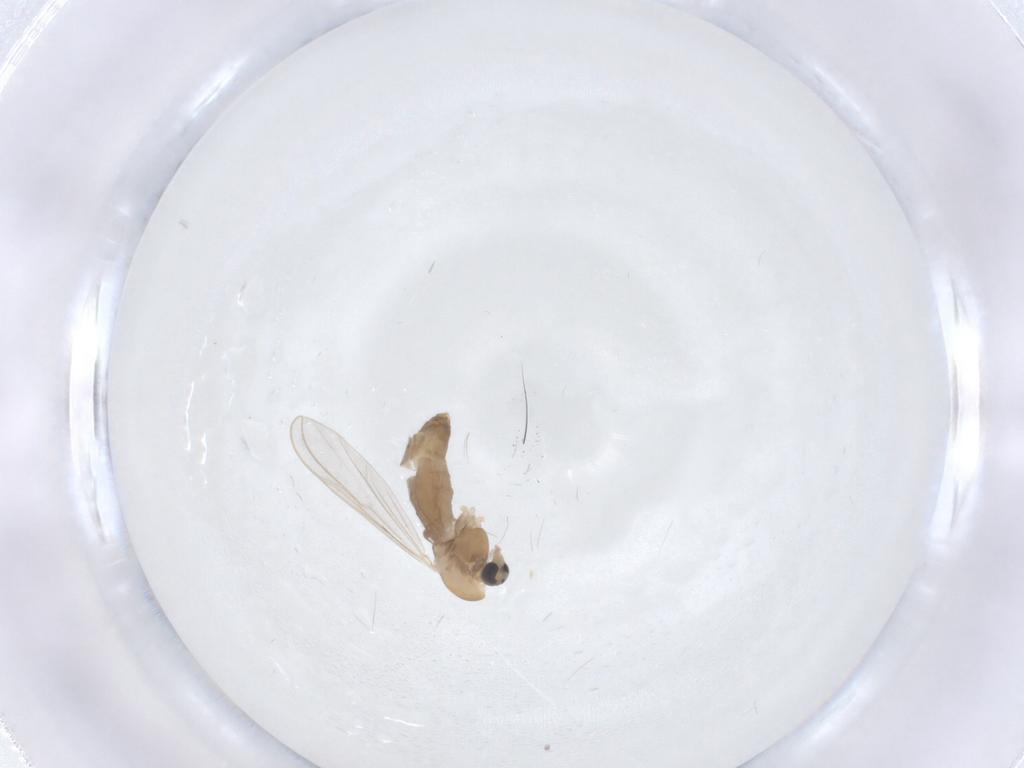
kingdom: Animalia
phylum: Arthropoda
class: Insecta
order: Diptera
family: Chironomidae
